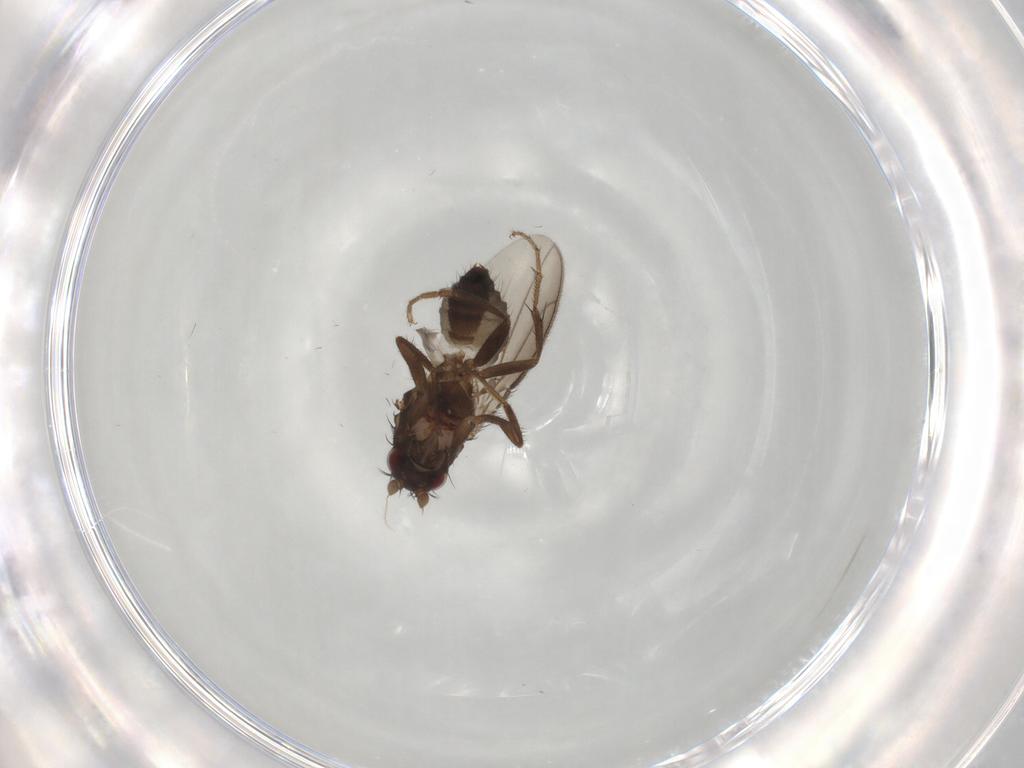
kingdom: Animalia
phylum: Arthropoda
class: Insecta
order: Diptera
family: Sphaeroceridae
